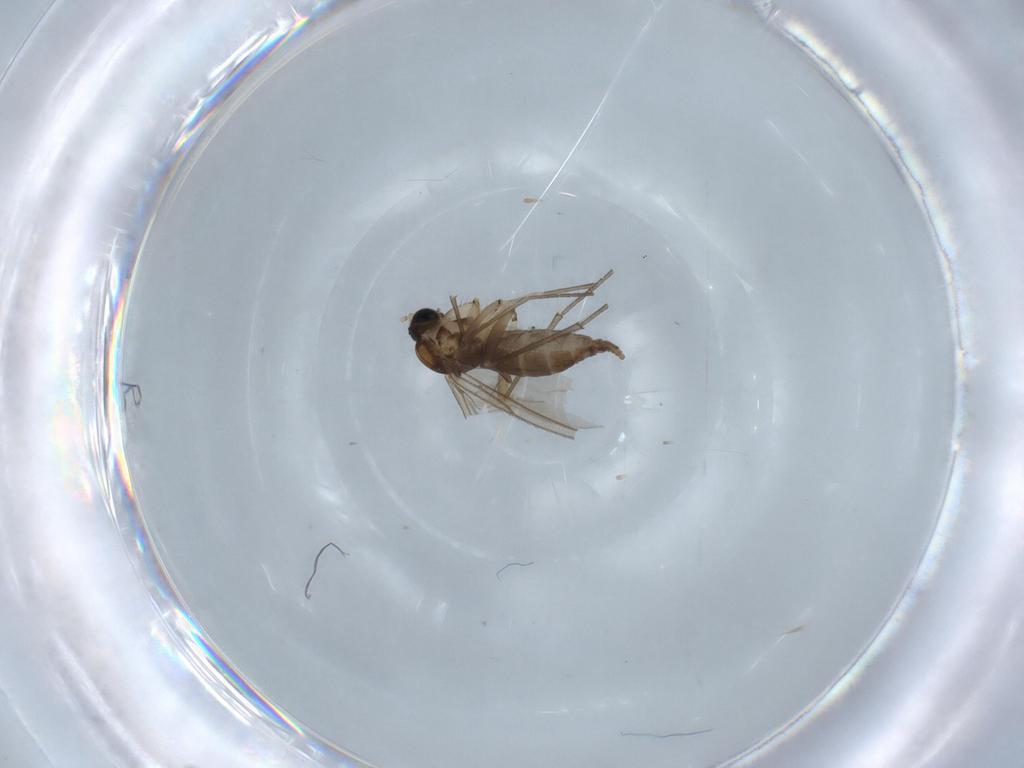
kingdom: Animalia
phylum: Arthropoda
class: Insecta
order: Diptera
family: Sciaridae
